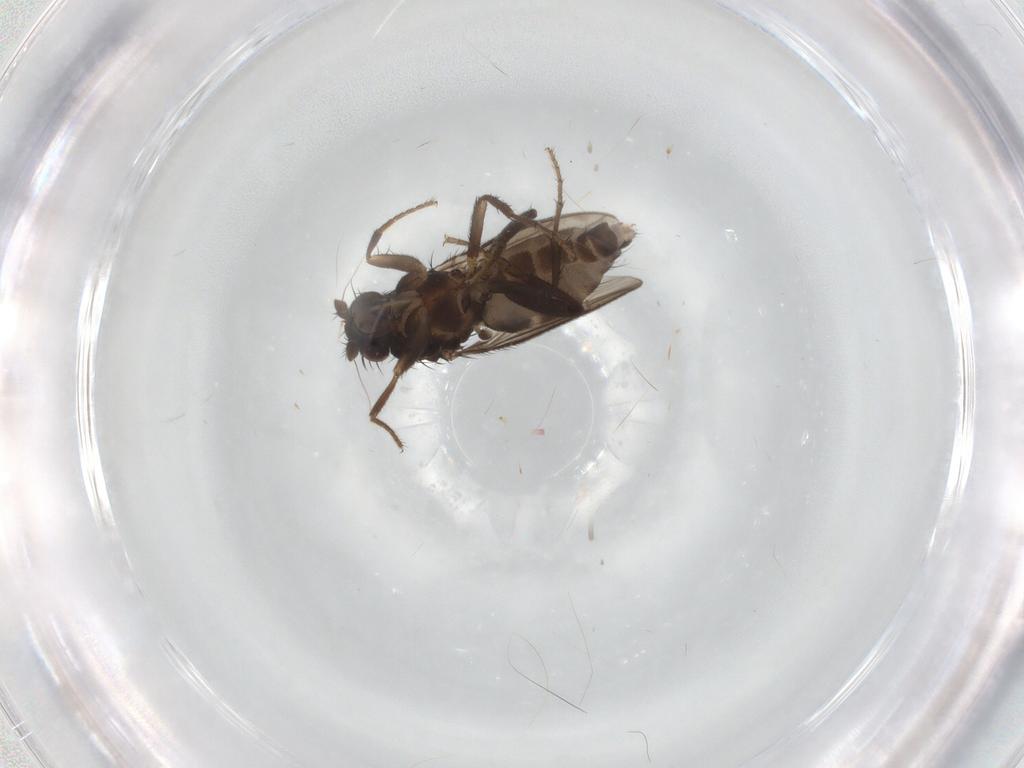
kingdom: Animalia
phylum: Arthropoda
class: Insecta
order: Diptera
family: Sphaeroceridae
